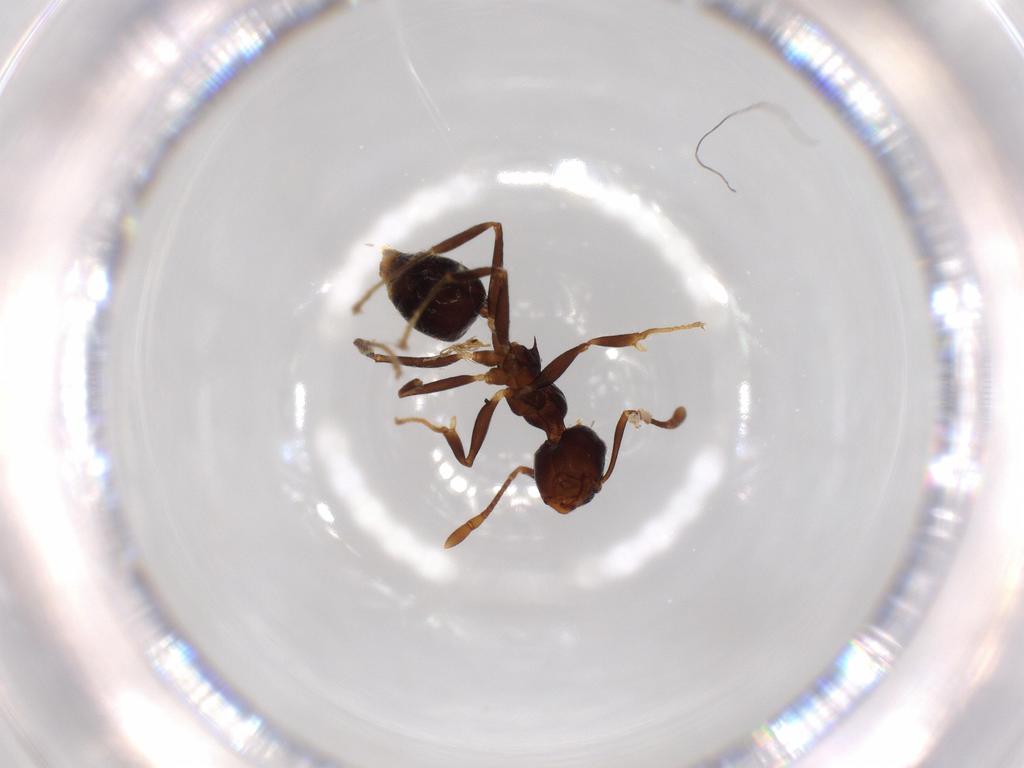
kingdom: Animalia
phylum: Arthropoda
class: Insecta
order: Hymenoptera
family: Formicidae
